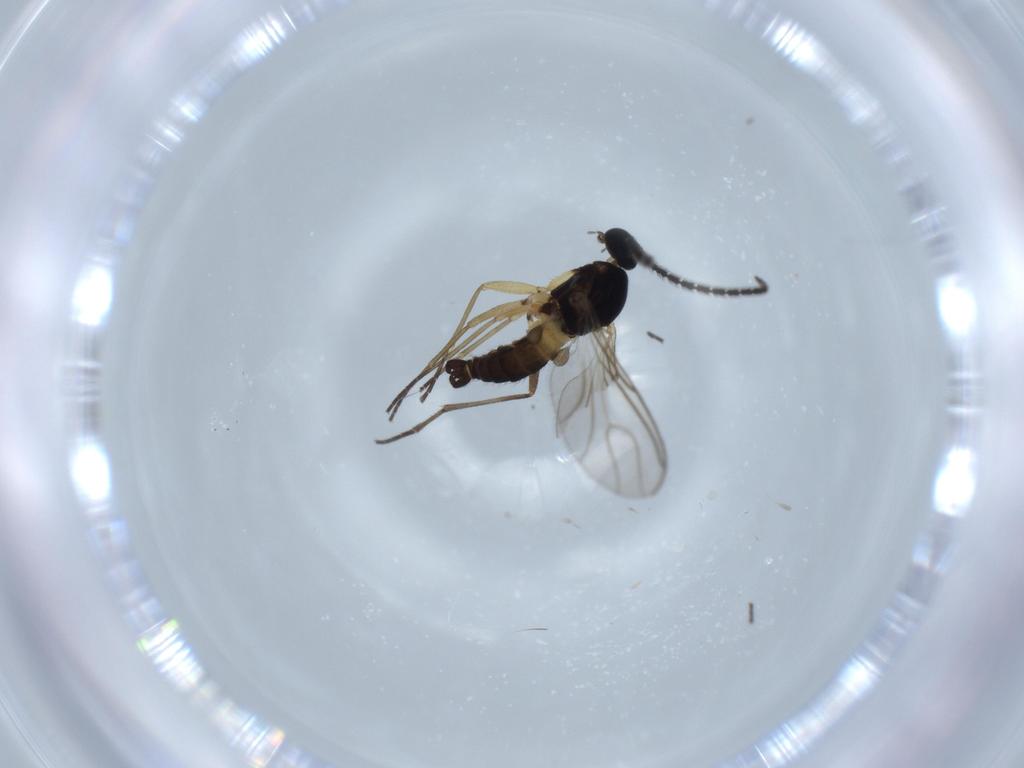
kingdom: Animalia
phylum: Arthropoda
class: Insecta
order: Diptera
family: Sciaridae
